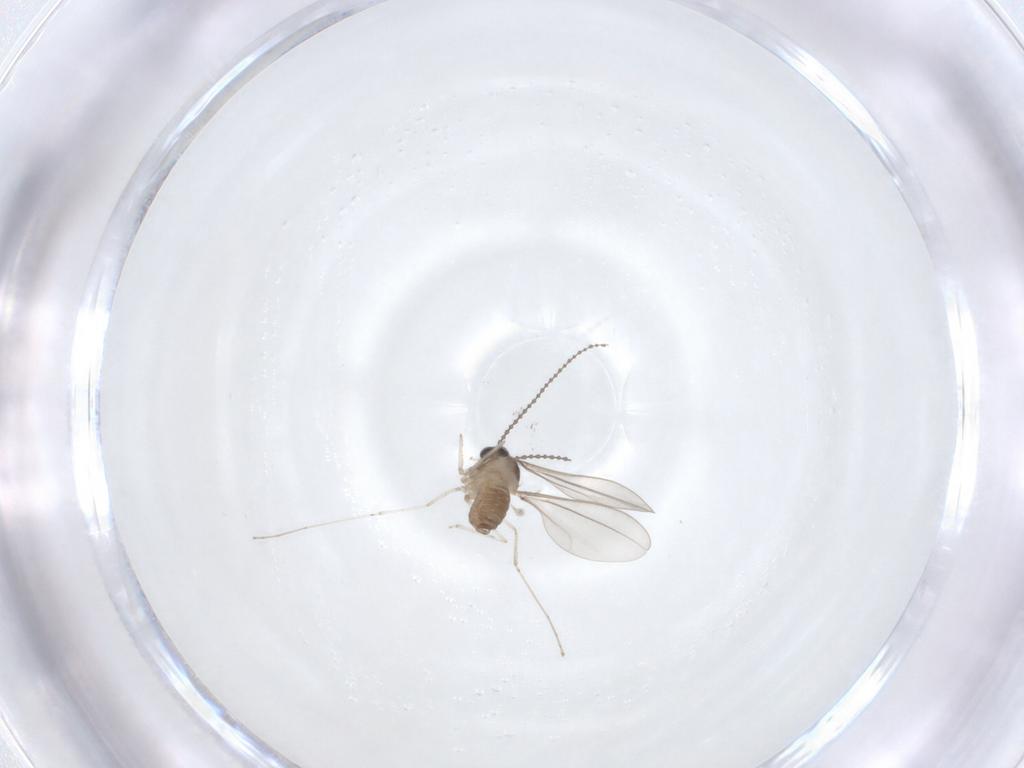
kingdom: Animalia
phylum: Arthropoda
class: Insecta
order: Diptera
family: Cecidomyiidae
